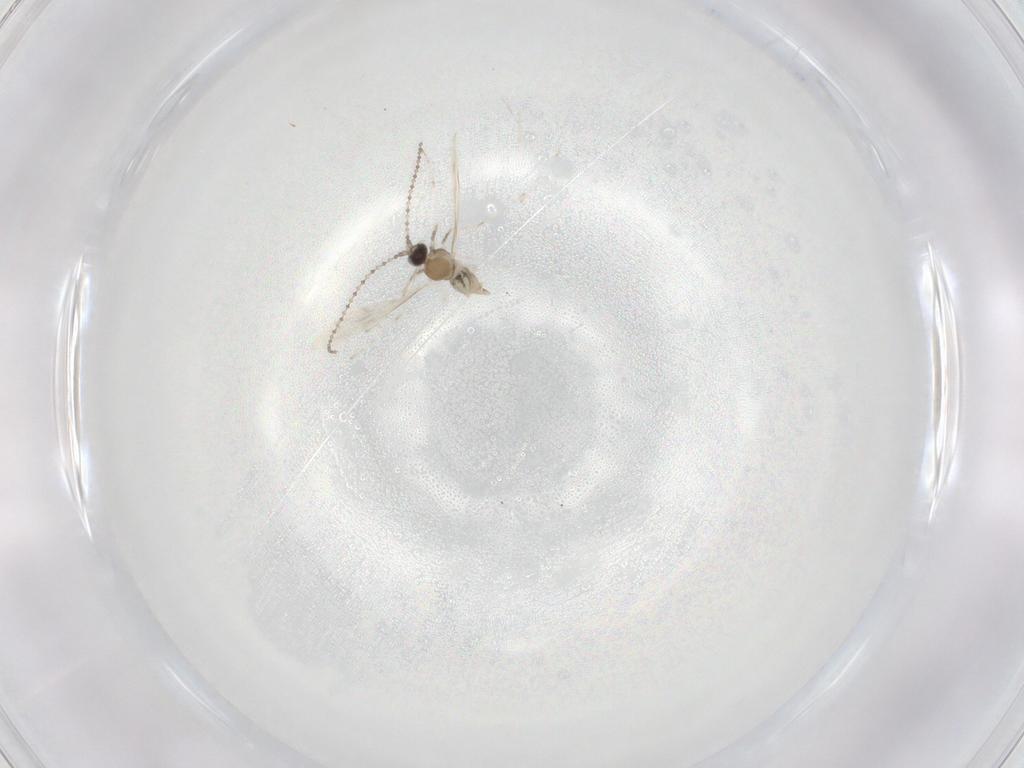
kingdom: Animalia
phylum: Arthropoda
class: Insecta
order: Diptera
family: Cecidomyiidae
